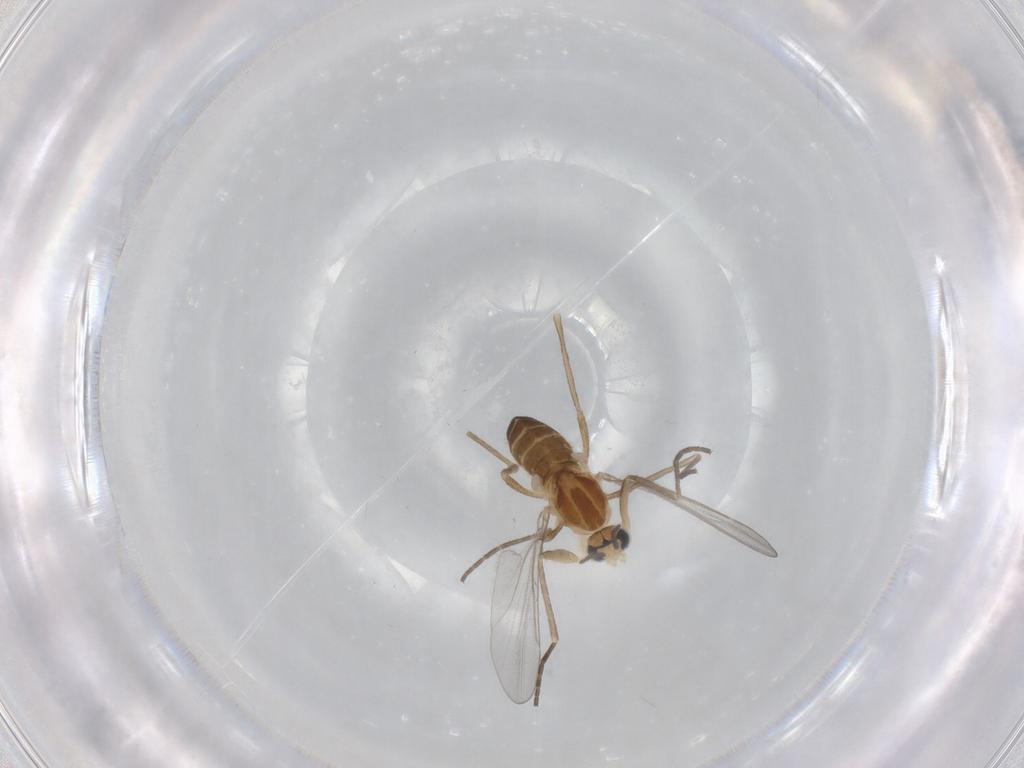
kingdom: Animalia
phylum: Arthropoda
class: Insecta
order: Diptera
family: Cecidomyiidae
